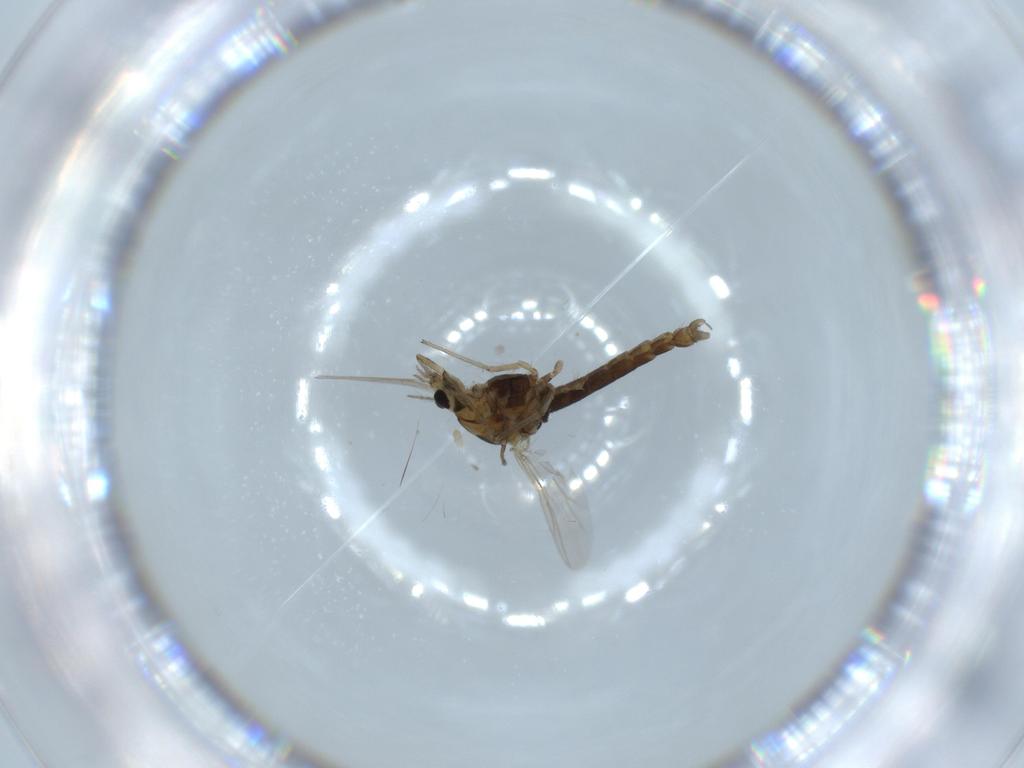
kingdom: Animalia
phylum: Arthropoda
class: Insecta
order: Diptera
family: Chironomidae
